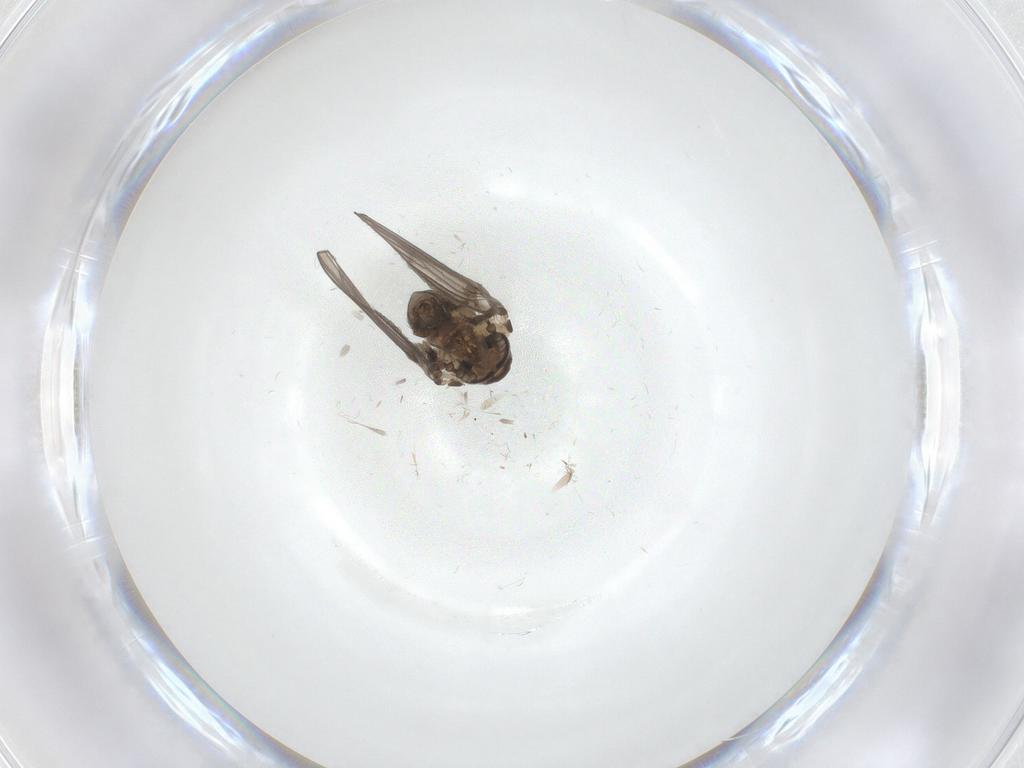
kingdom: Animalia
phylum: Arthropoda
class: Insecta
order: Diptera
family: Psychodidae
